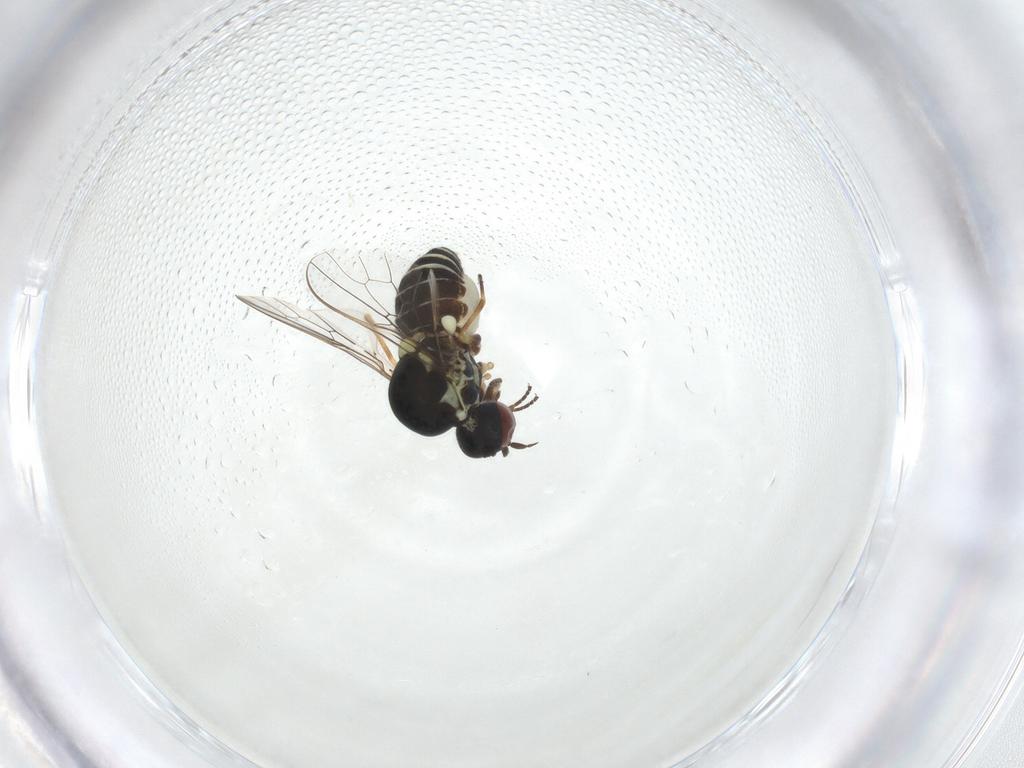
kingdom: Animalia
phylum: Arthropoda
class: Insecta
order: Diptera
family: Bombyliidae
